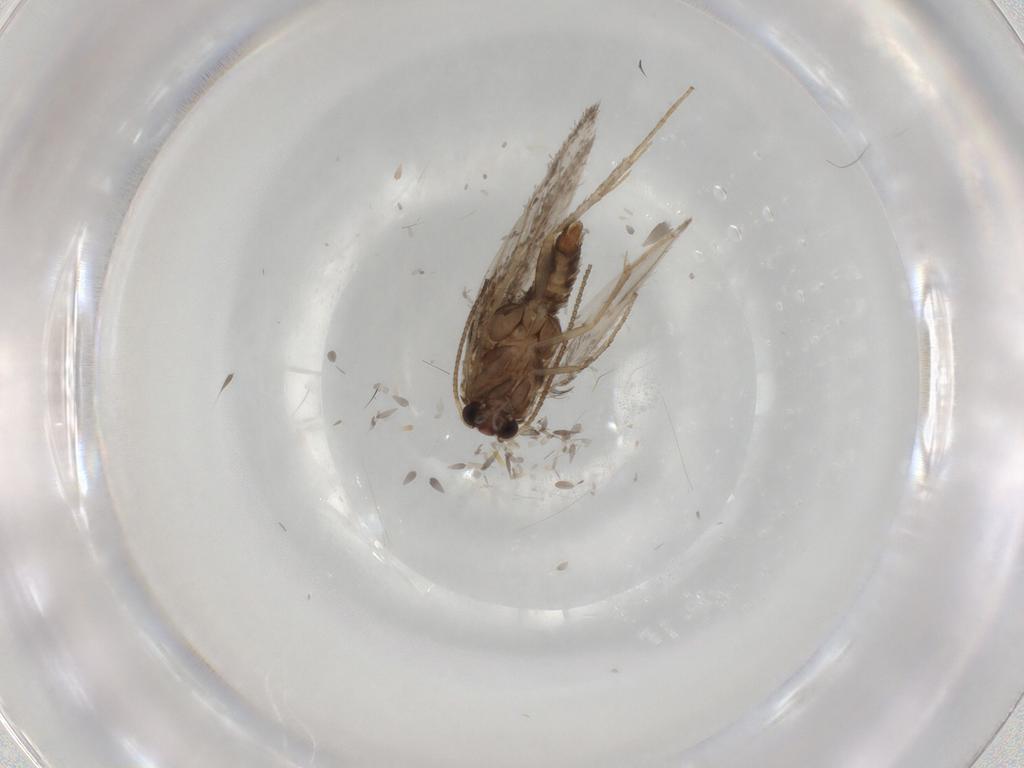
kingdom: Animalia
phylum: Arthropoda
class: Insecta
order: Lepidoptera
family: Nepticulidae
